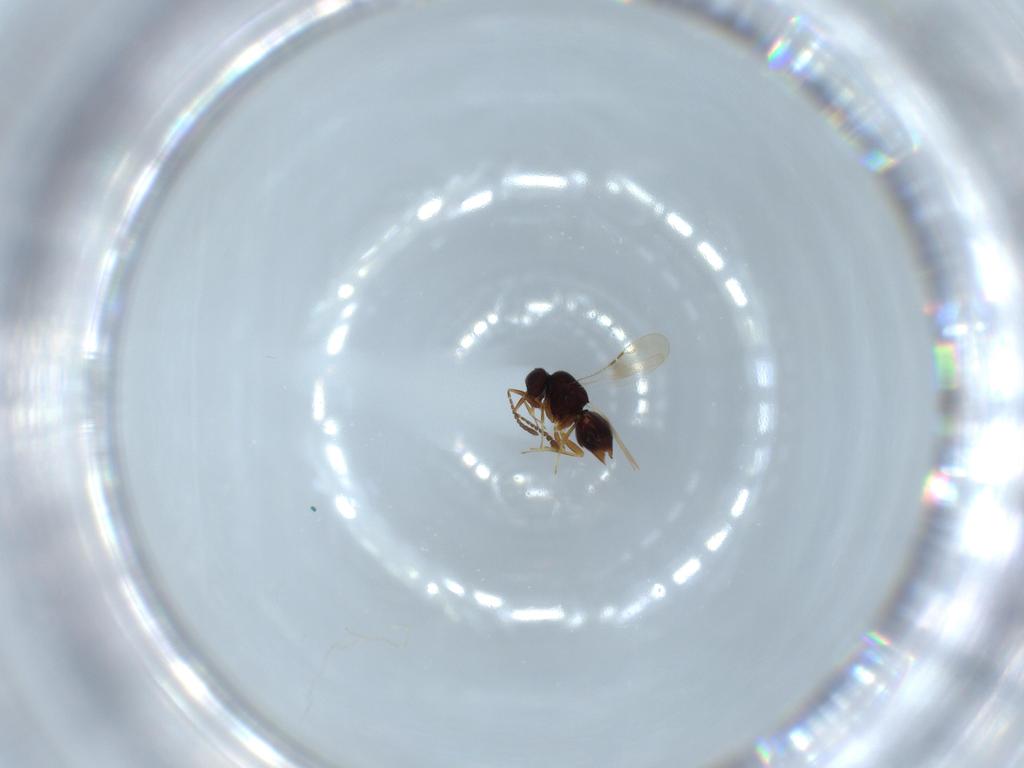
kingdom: Animalia
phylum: Arthropoda
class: Insecta
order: Hymenoptera
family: Ceraphronidae
